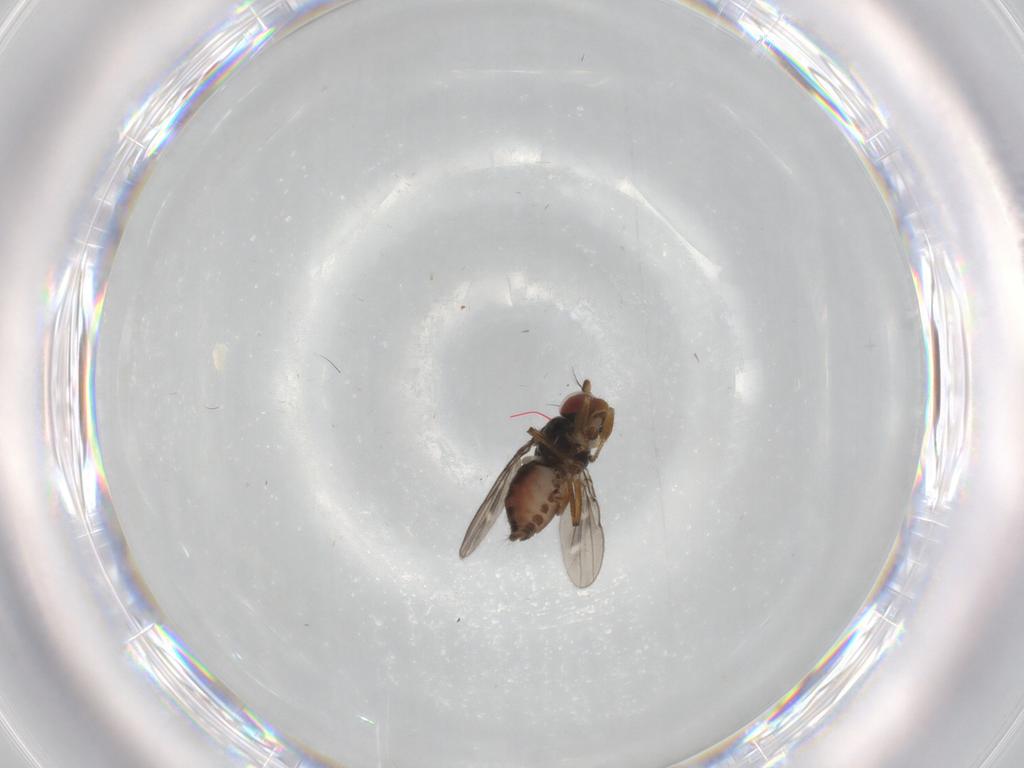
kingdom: Animalia
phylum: Arthropoda
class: Insecta
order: Diptera
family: Ephydridae
